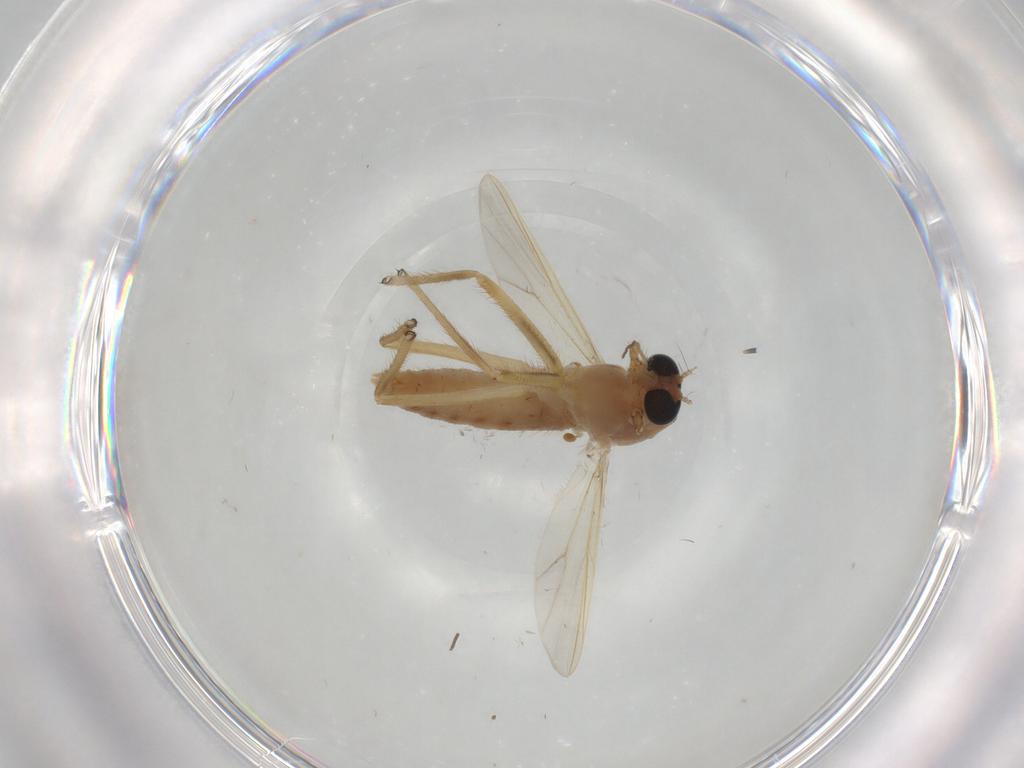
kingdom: Animalia
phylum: Arthropoda
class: Insecta
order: Diptera
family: Chironomidae
